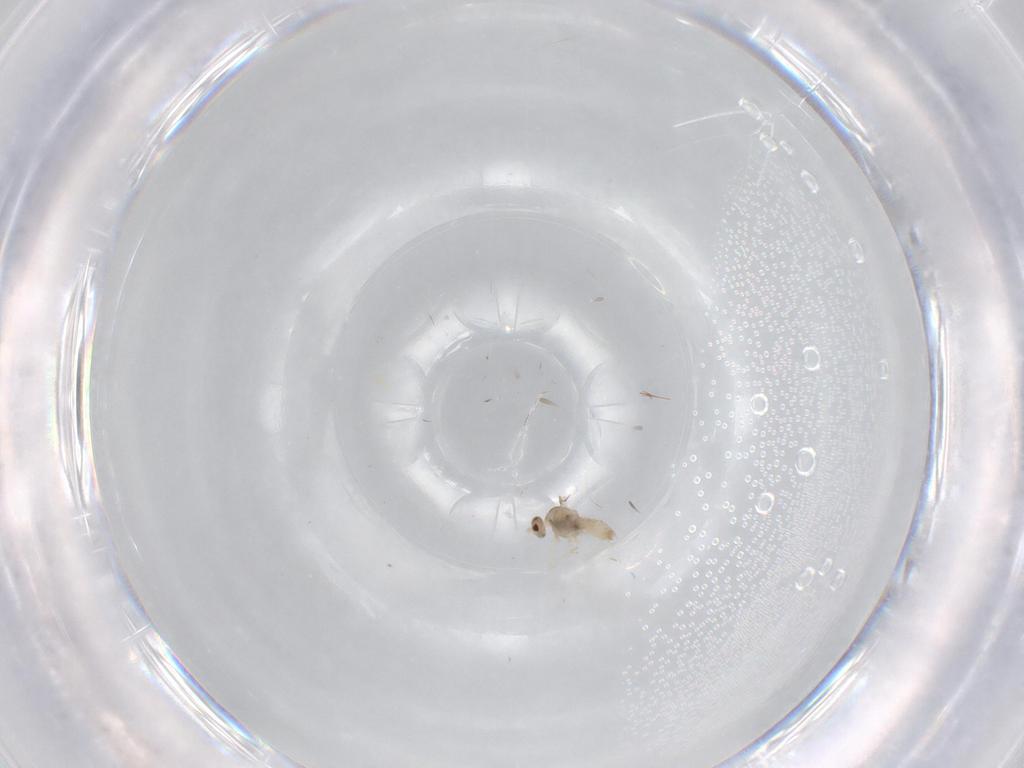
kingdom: Animalia
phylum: Arthropoda
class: Insecta
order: Diptera
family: Cecidomyiidae
